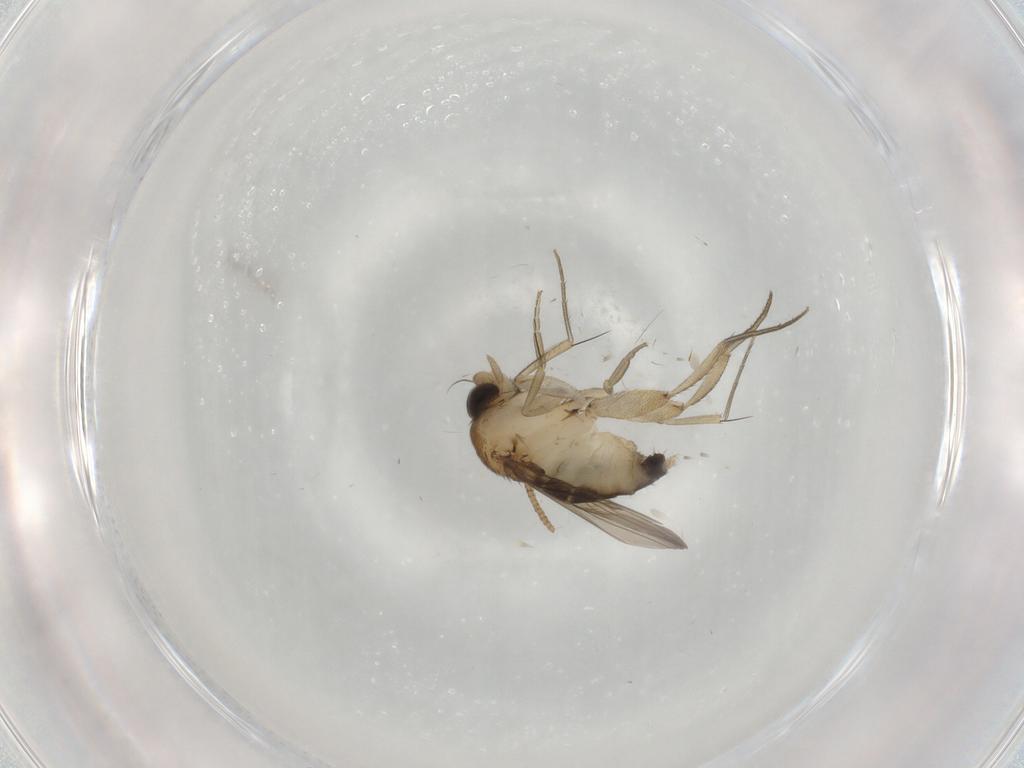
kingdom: Animalia
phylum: Arthropoda
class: Insecta
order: Diptera
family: Phoridae
